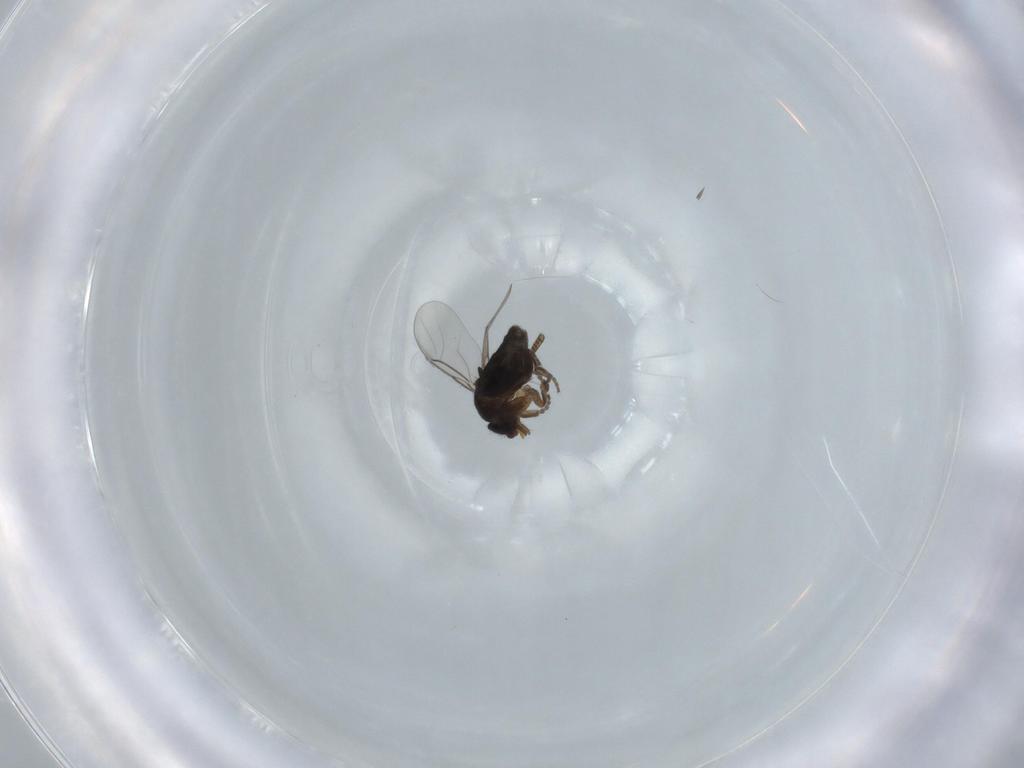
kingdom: Animalia
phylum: Arthropoda
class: Insecta
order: Diptera
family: Phoridae
